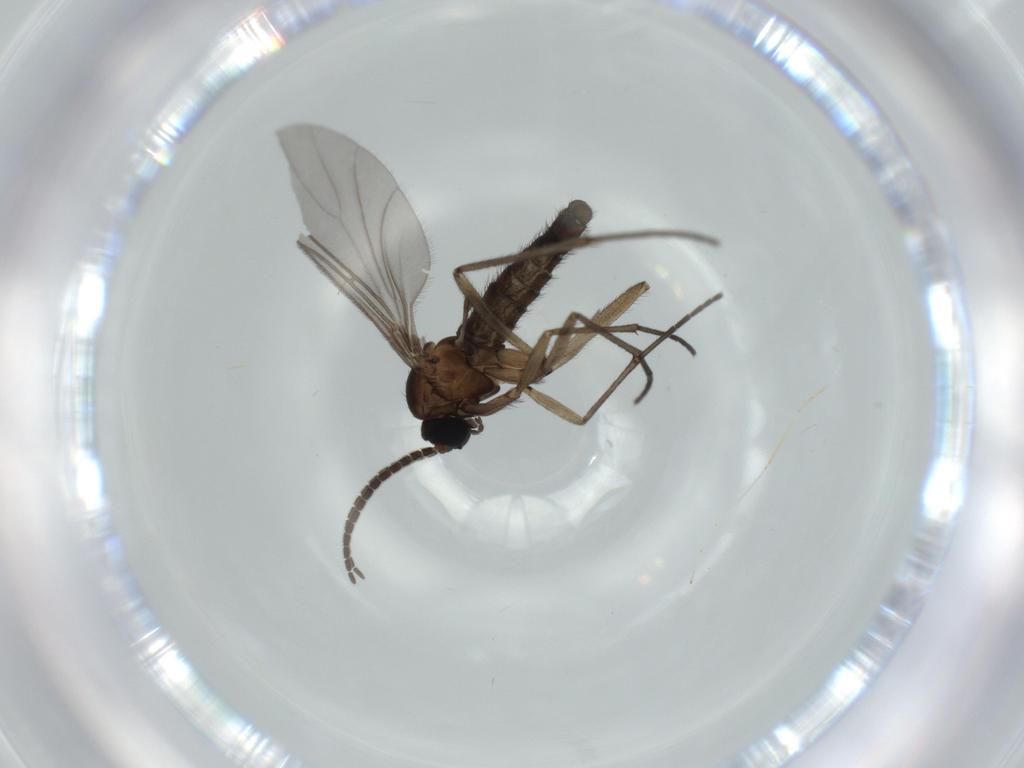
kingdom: Animalia
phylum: Arthropoda
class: Insecta
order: Diptera
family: Sciaridae
